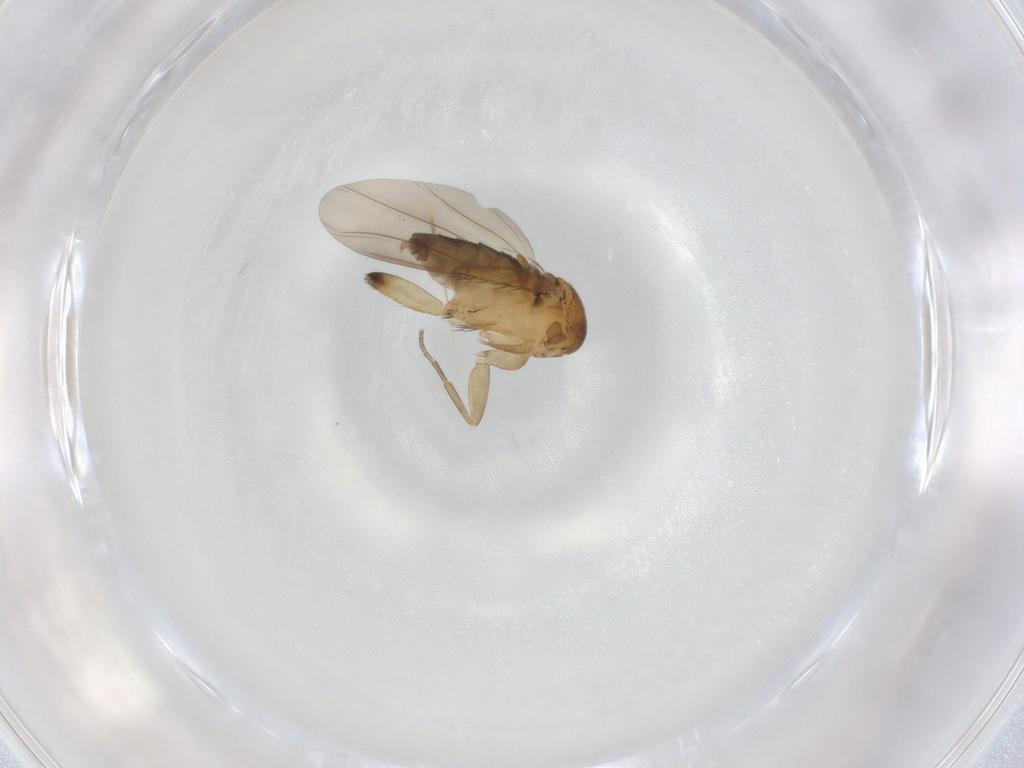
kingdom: Animalia
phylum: Arthropoda
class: Insecta
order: Diptera
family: Phoridae
